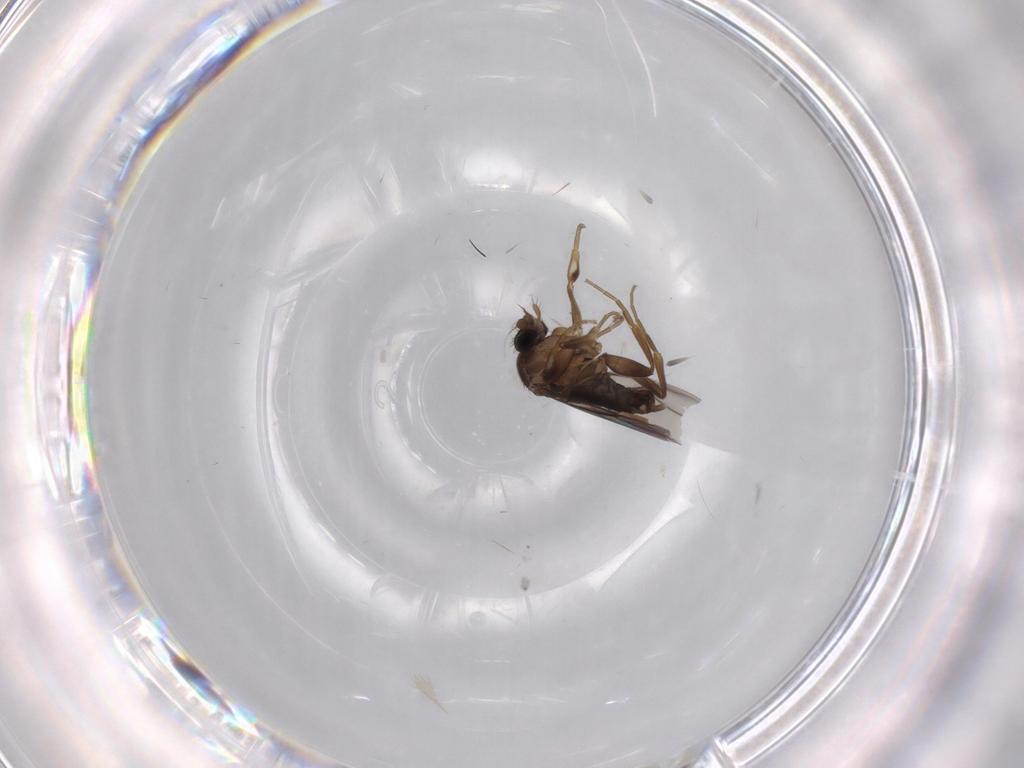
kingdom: Animalia
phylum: Arthropoda
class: Insecta
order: Diptera
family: Phoridae
